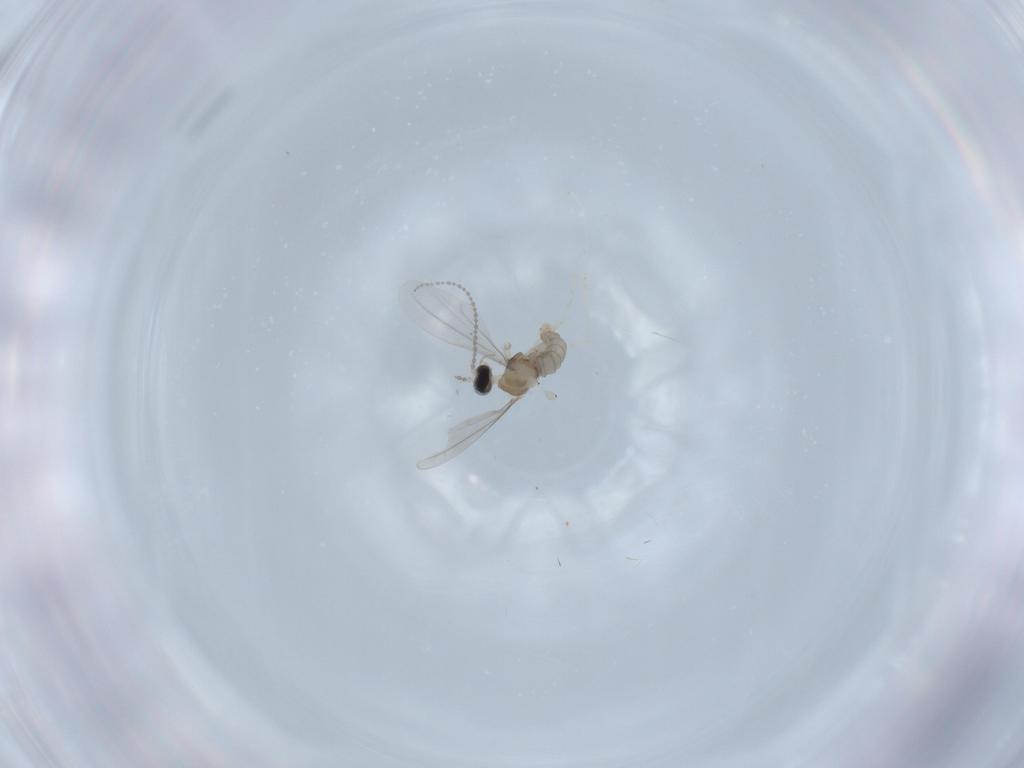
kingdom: Animalia
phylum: Arthropoda
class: Insecta
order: Diptera
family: Cecidomyiidae
